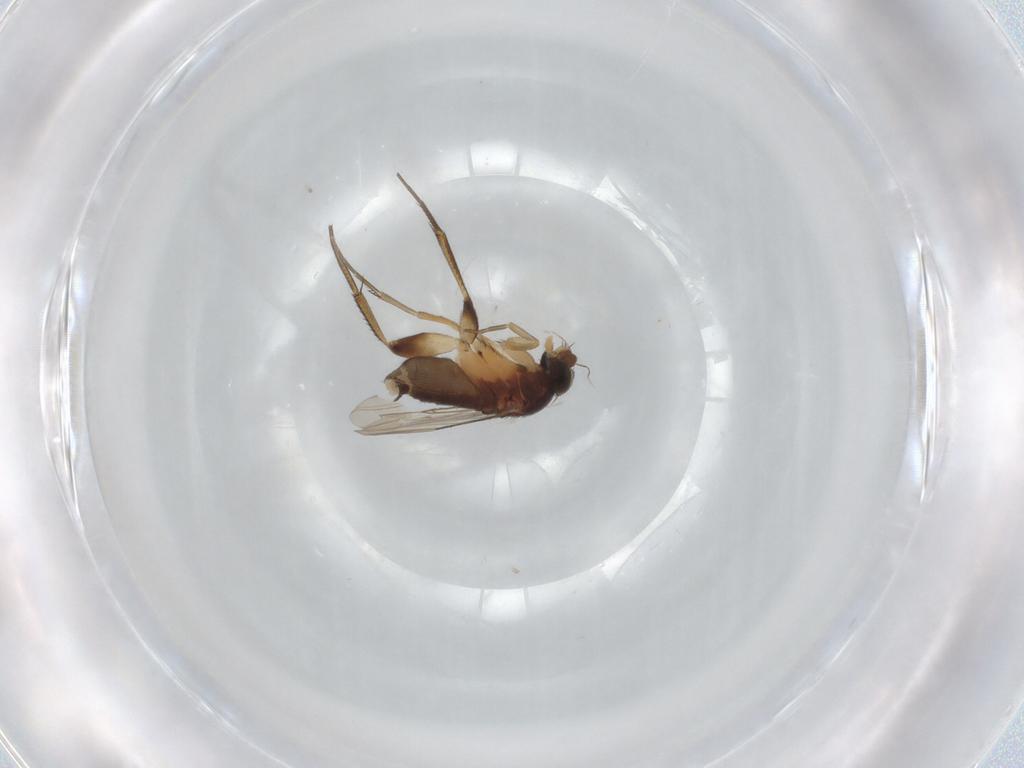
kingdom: Animalia
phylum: Arthropoda
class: Insecta
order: Diptera
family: Phoridae
